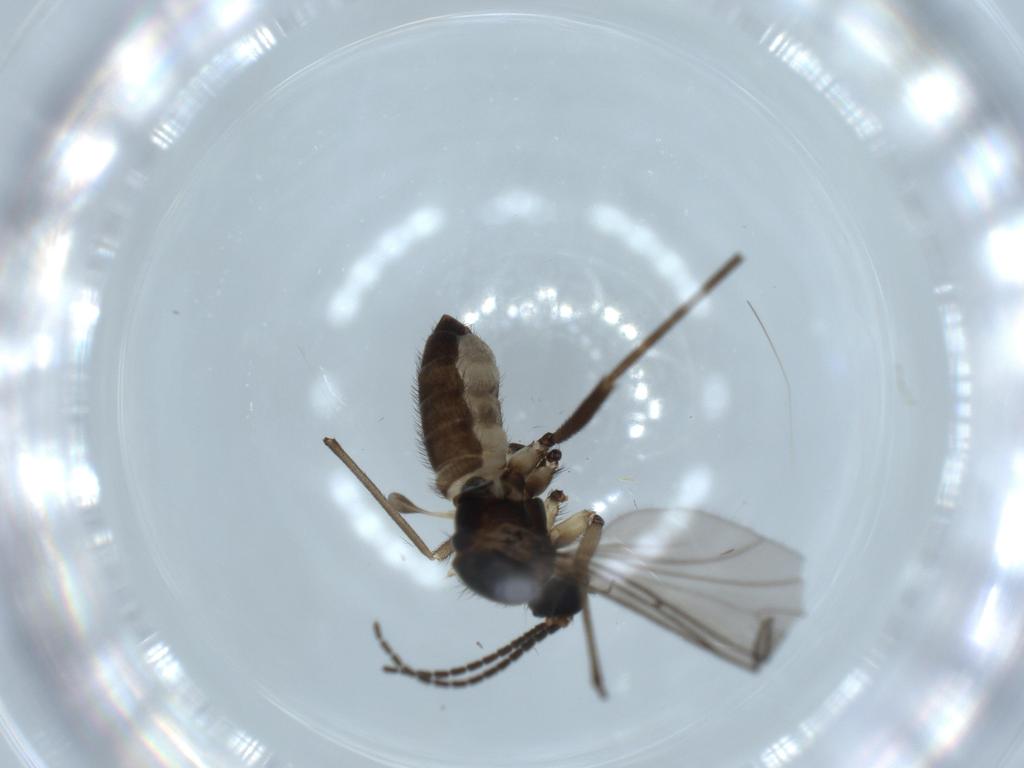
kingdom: Animalia
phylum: Arthropoda
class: Insecta
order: Diptera
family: Sciaridae
